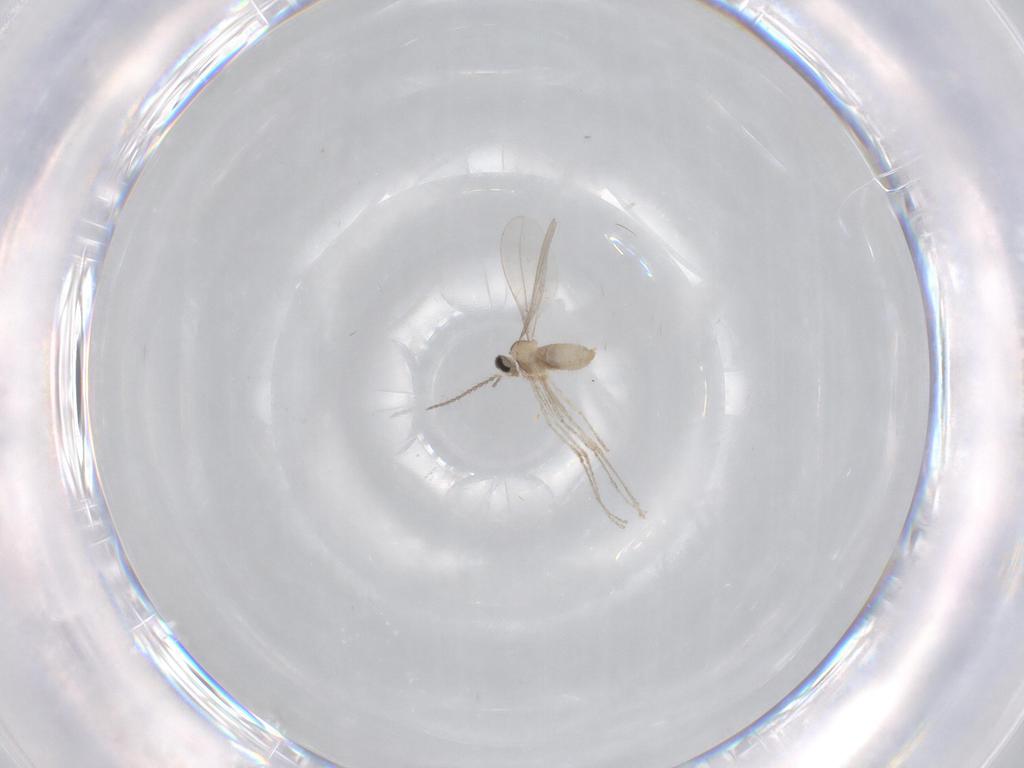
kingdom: Animalia
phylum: Arthropoda
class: Insecta
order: Diptera
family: Cecidomyiidae
